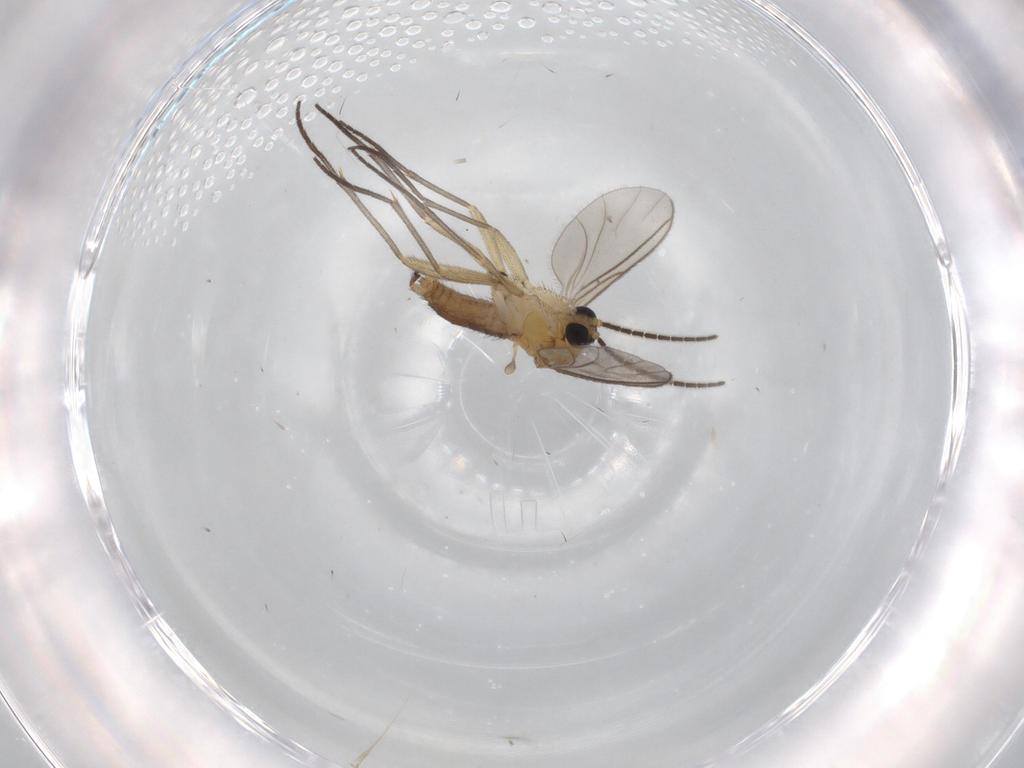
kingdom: Animalia
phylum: Arthropoda
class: Insecta
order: Diptera
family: Sciaridae
